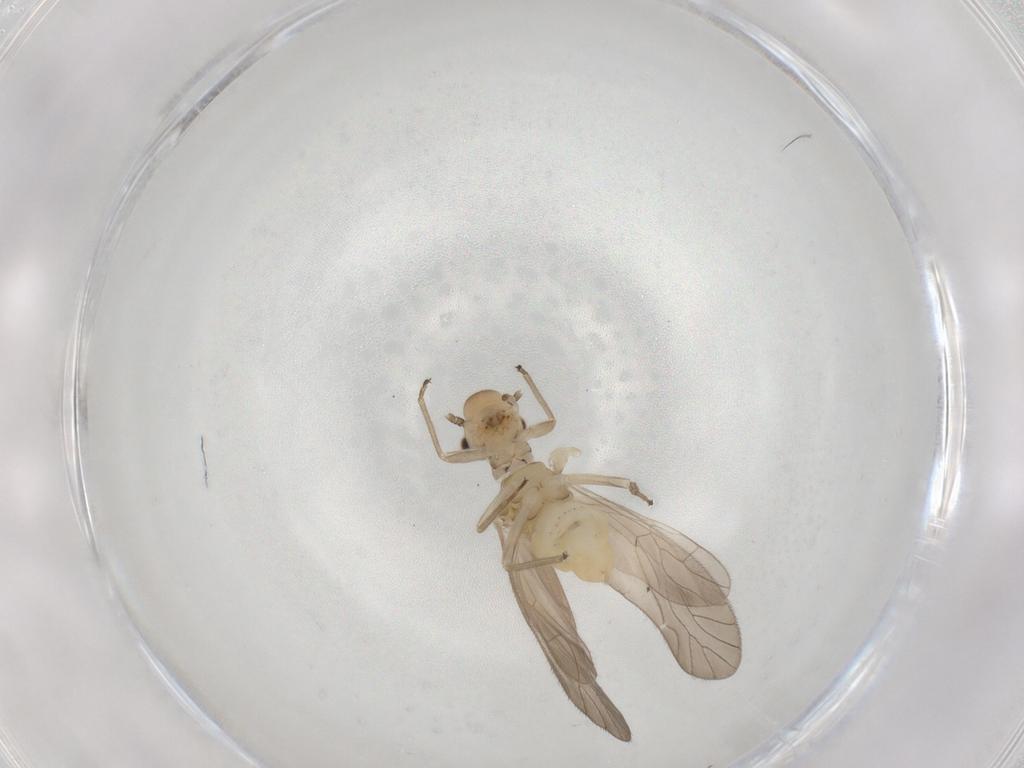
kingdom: Animalia
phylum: Arthropoda
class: Insecta
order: Psocodea
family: Caeciliusidae
